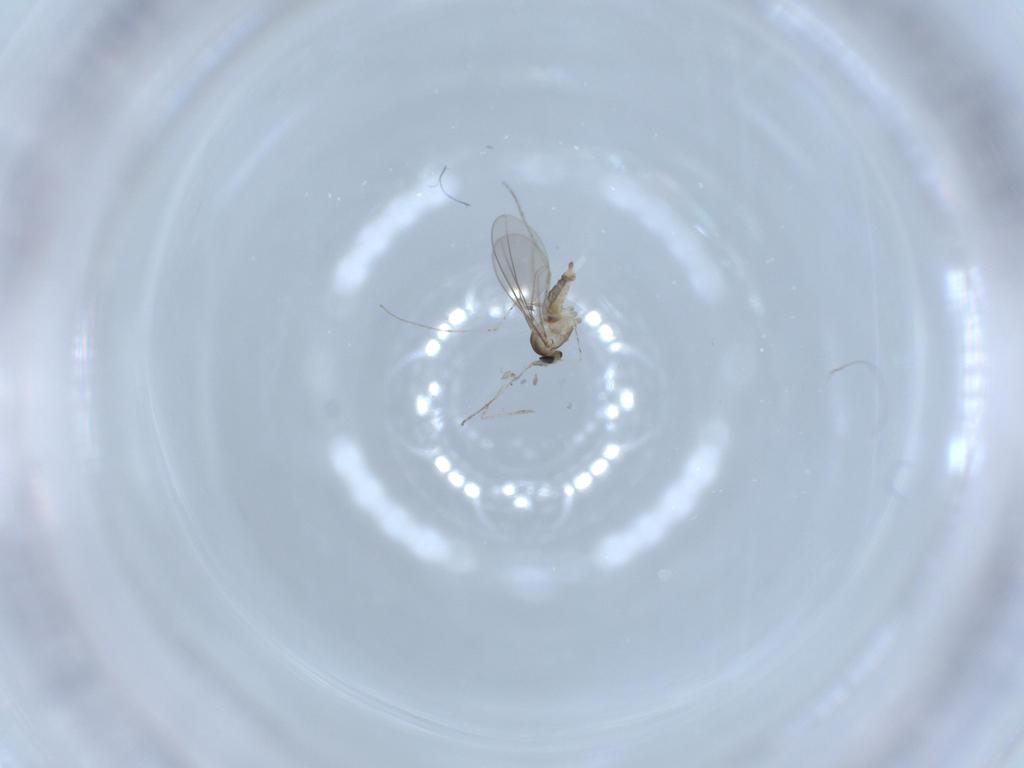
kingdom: Animalia
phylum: Arthropoda
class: Insecta
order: Diptera
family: Cecidomyiidae
